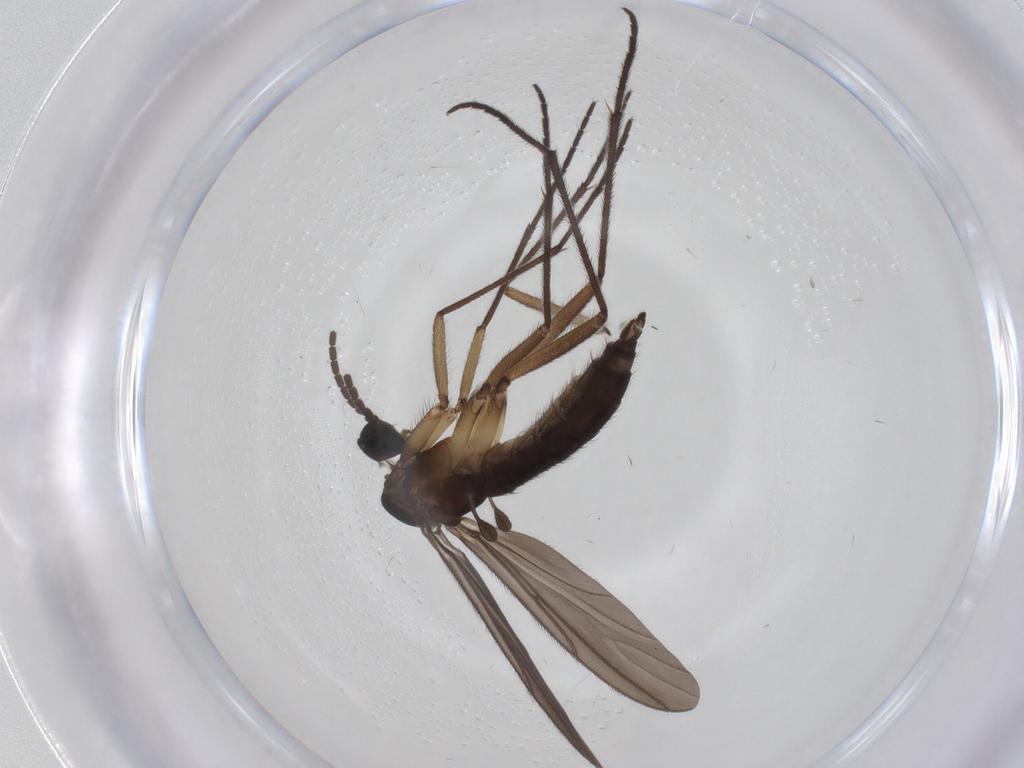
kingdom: Animalia
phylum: Arthropoda
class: Insecta
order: Diptera
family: Sciaridae
